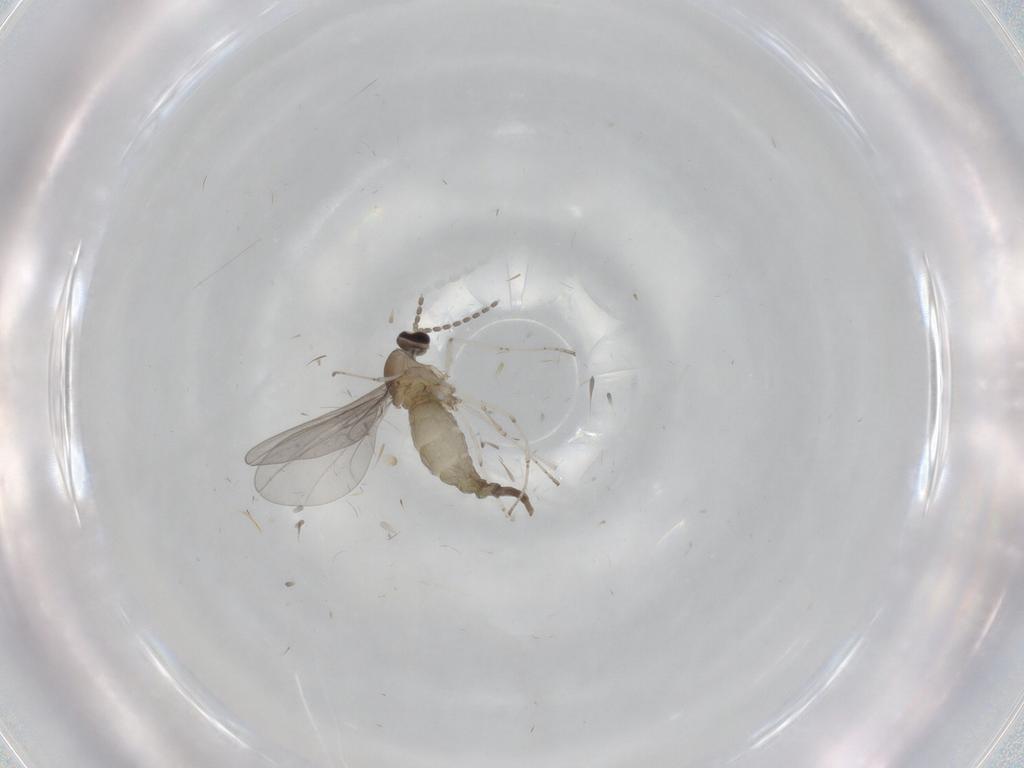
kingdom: Animalia
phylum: Arthropoda
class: Insecta
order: Diptera
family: Cecidomyiidae
